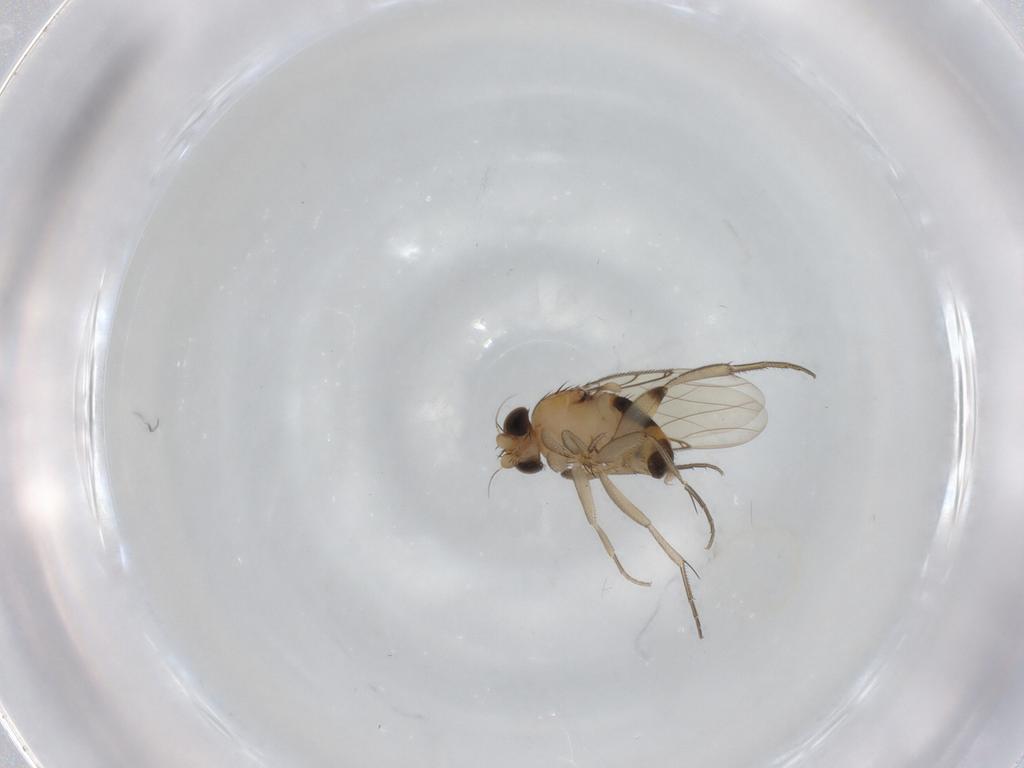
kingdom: Animalia
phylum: Arthropoda
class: Insecta
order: Diptera
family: Phoridae
